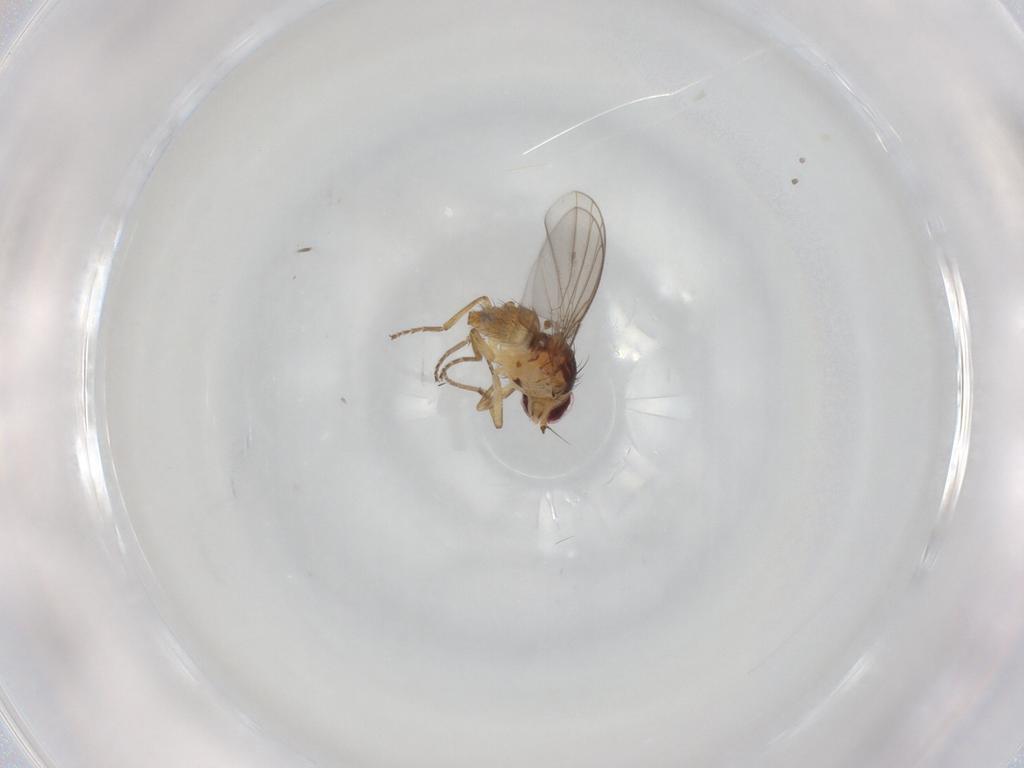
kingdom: Animalia
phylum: Arthropoda
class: Insecta
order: Diptera
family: Agromyzidae
